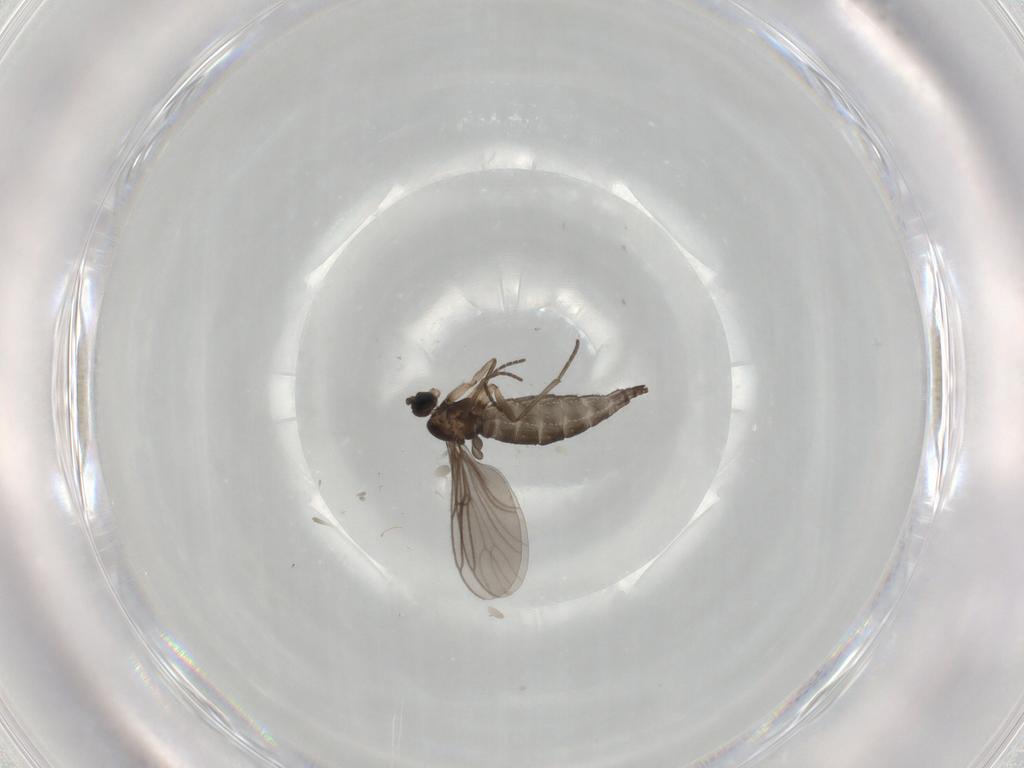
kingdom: Animalia
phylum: Arthropoda
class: Insecta
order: Diptera
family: Sciaridae
